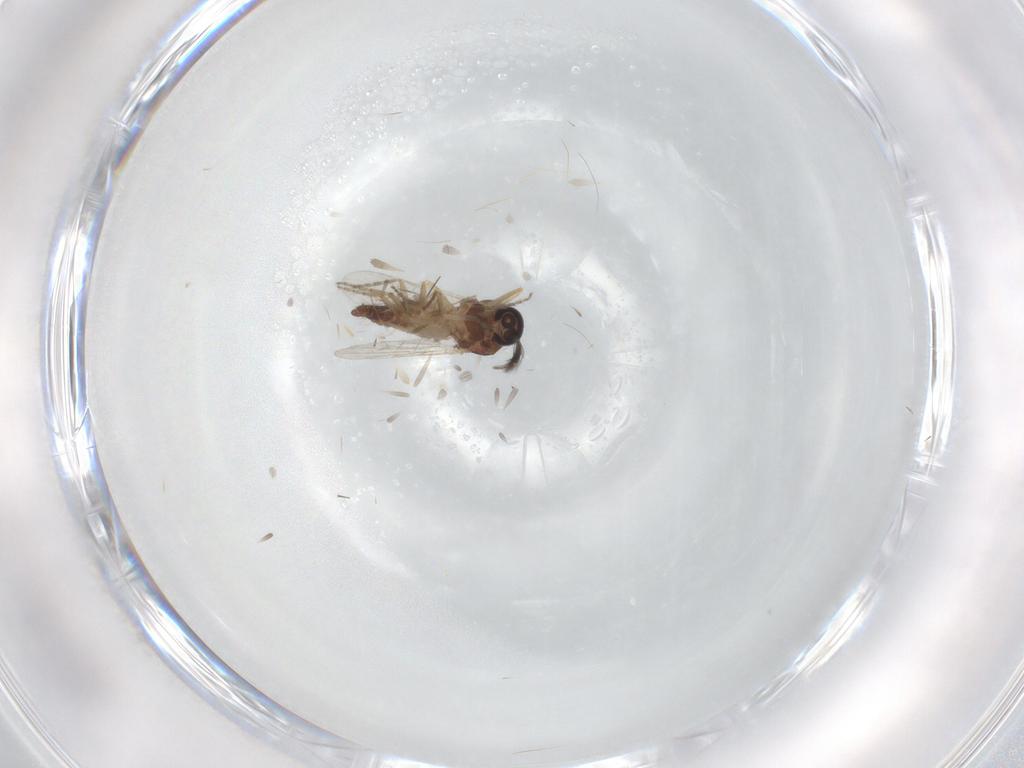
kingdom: Animalia
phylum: Arthropoda
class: Insecta
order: Diptera
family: Ceratopogonidae
